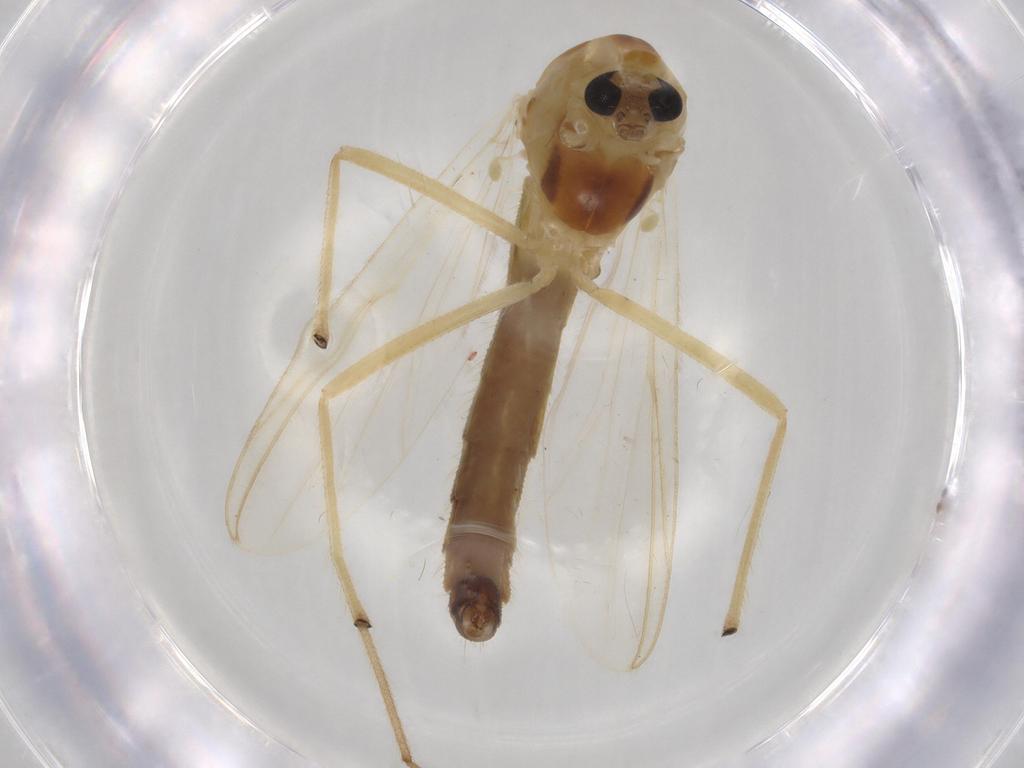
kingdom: Animalia
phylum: Arthropoda
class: Insecta
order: Diptera
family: Chironomidae
